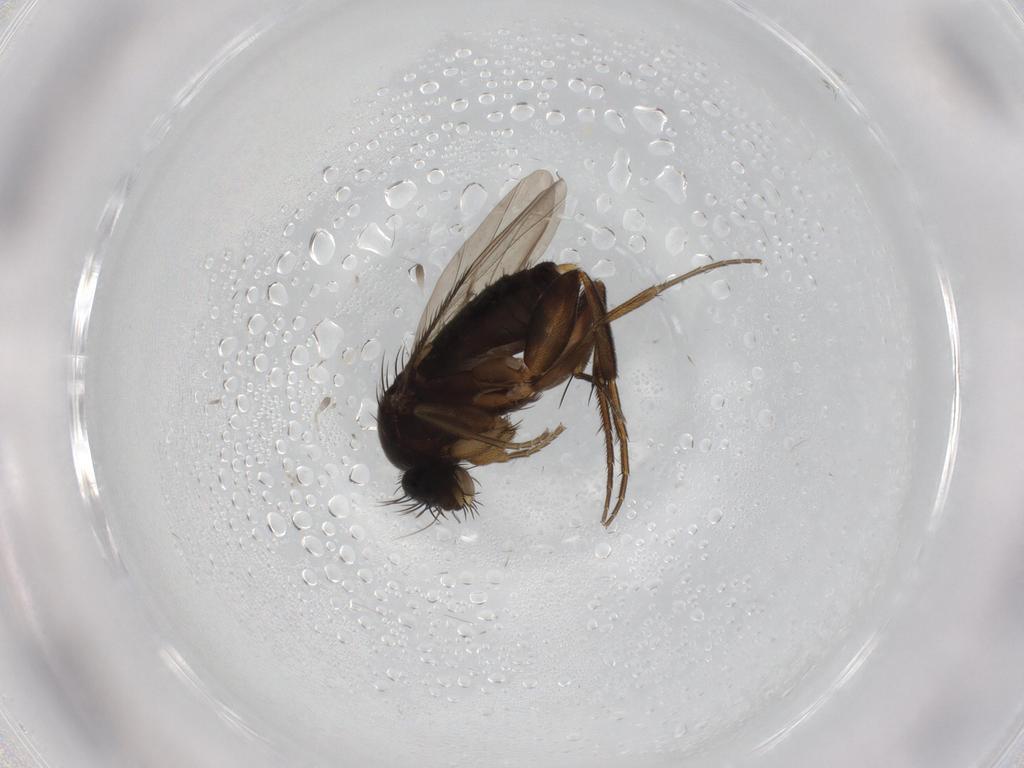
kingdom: Animalia
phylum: Arthropoda
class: Insecta
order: Diptera
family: Phoridae
